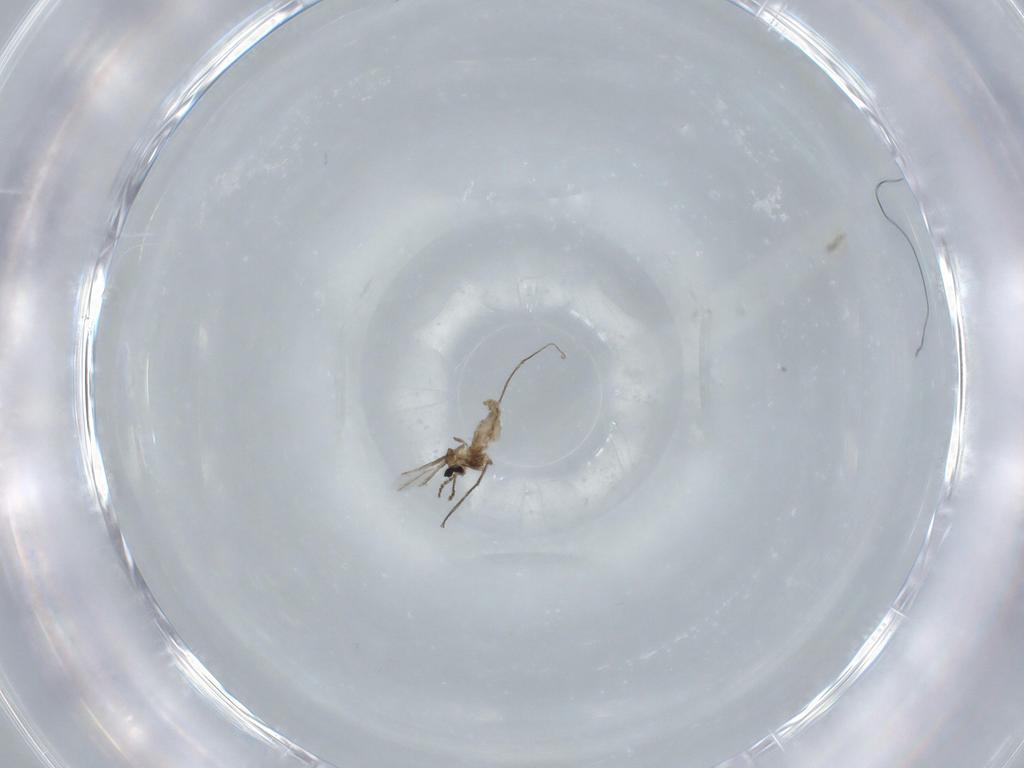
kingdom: Animalia
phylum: Arthropoda
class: Insecta
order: Diptera
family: Cecidomyiidae
